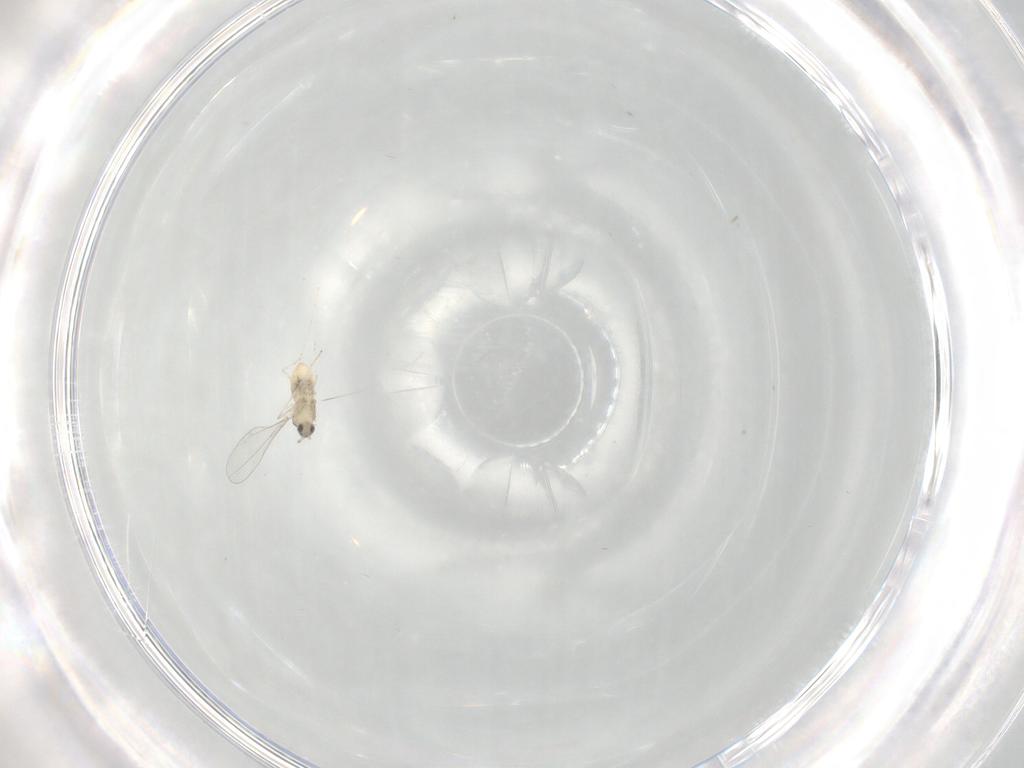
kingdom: Animalia
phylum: Arthropoda
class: Insecta
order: Diptera
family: Cecidomyiidae
